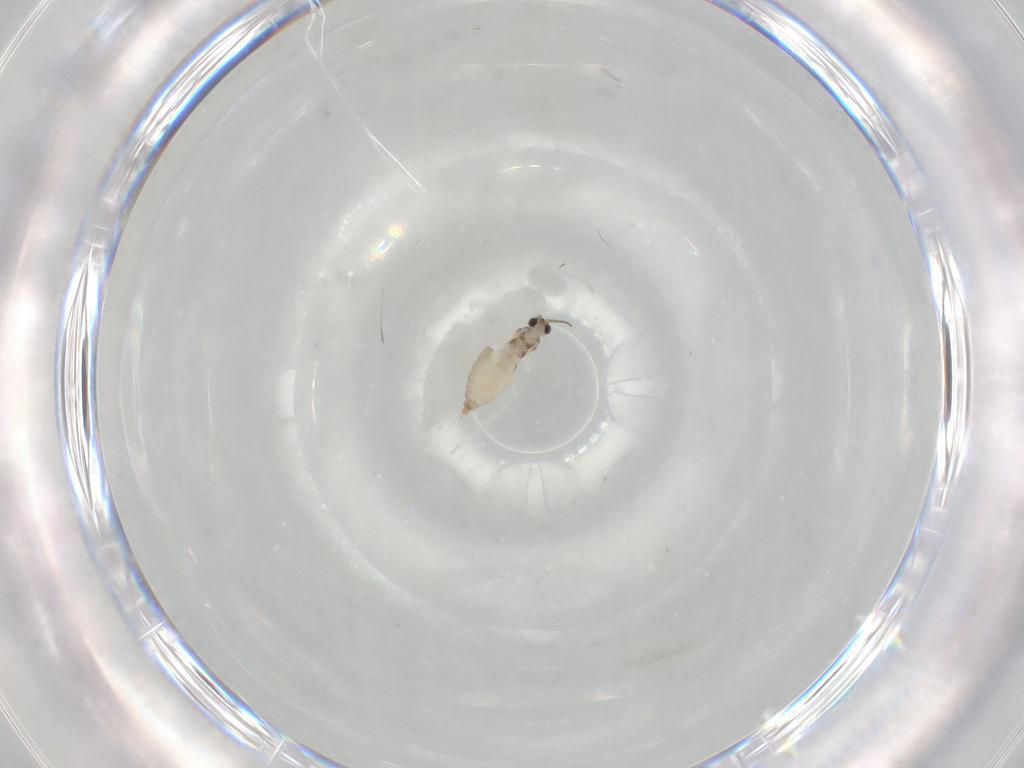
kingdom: Animalia
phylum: Arthropoda
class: Insecta
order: Diptera
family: Cecidomyiidae
